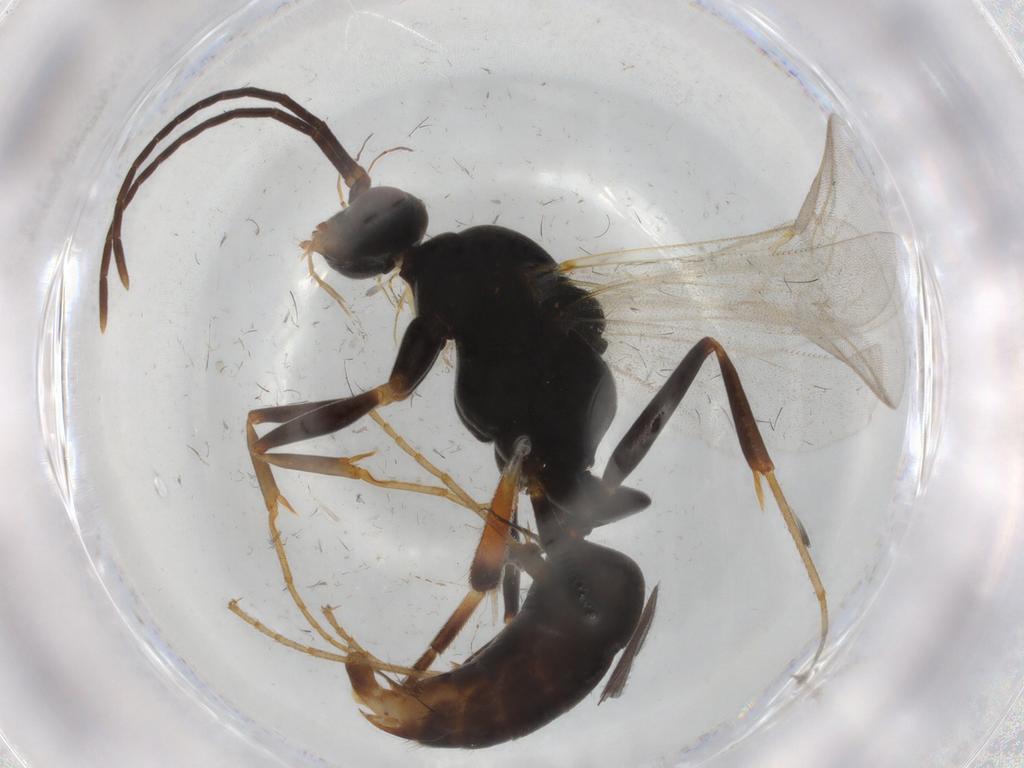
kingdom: Animalia
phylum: Arthropoda
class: Insecta
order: Hymenoptera
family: Formicidae
